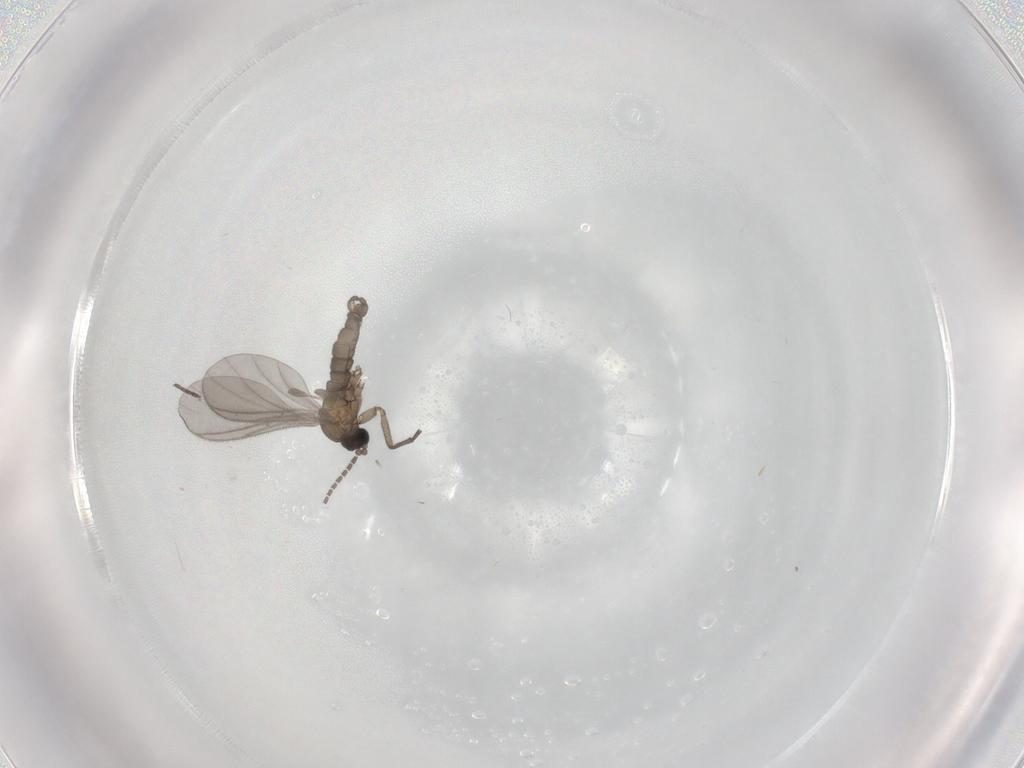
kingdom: Animalia
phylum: Arthropoda
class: Insecta
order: Diptera
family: Sciaridae
